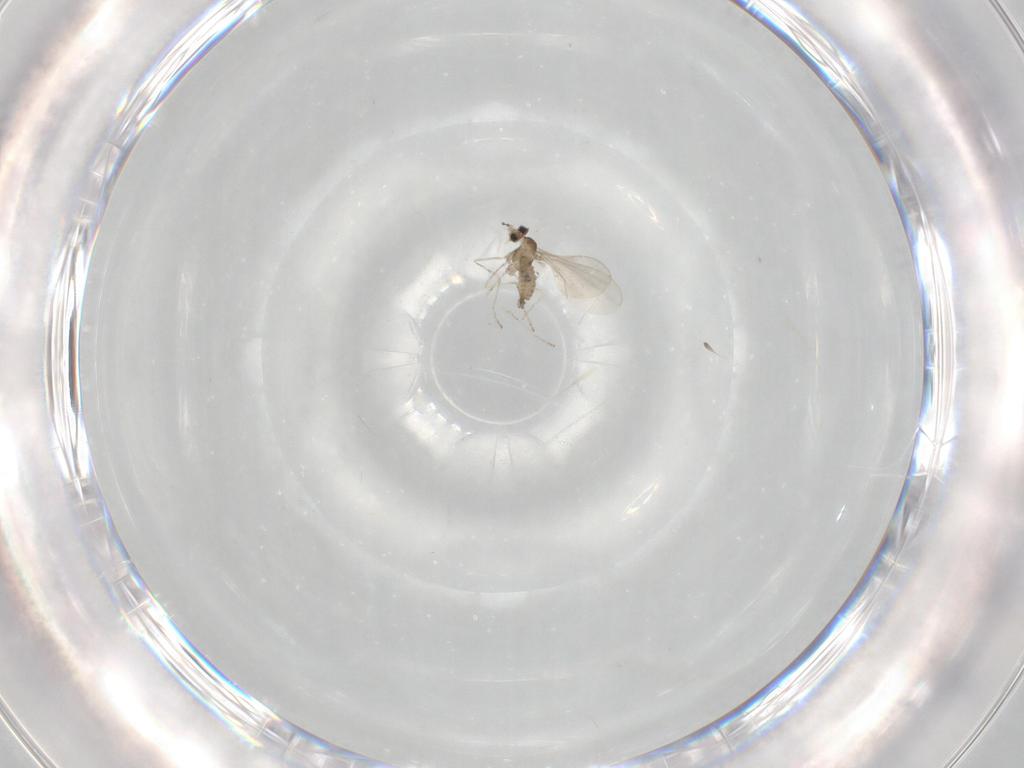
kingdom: Animalia
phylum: Arthropoda
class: Insecta
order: Diptera
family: Cecidomyiidae
